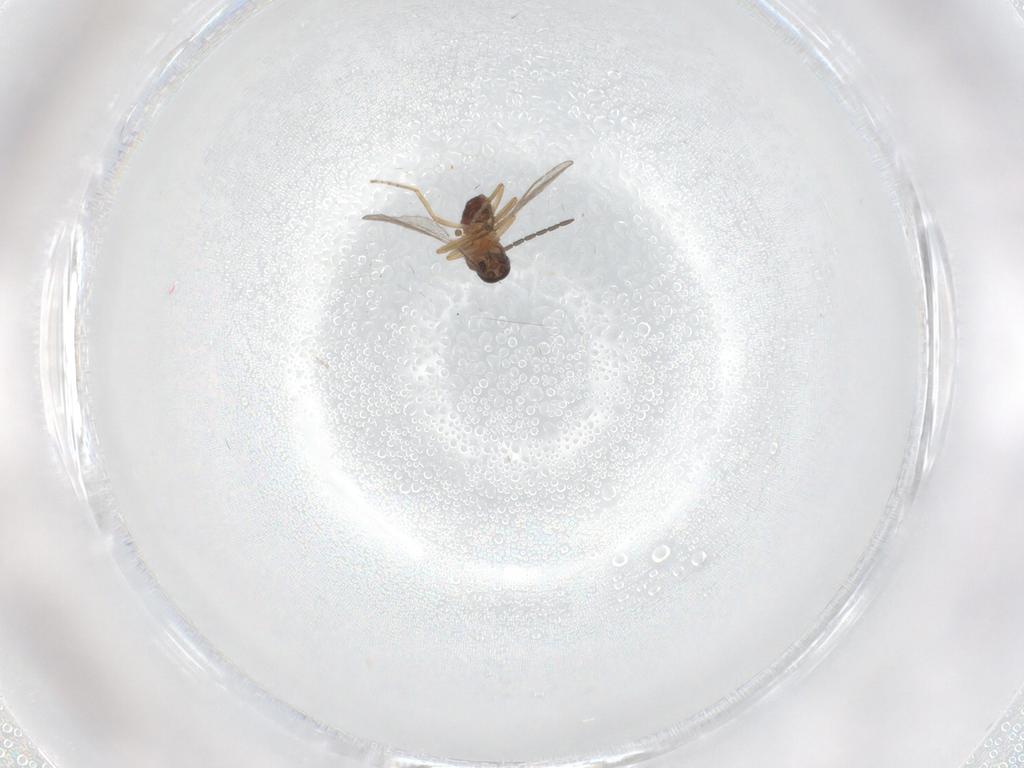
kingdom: Animalia
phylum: Arthropoda
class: Insecta
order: Diptera
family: Phoridae
